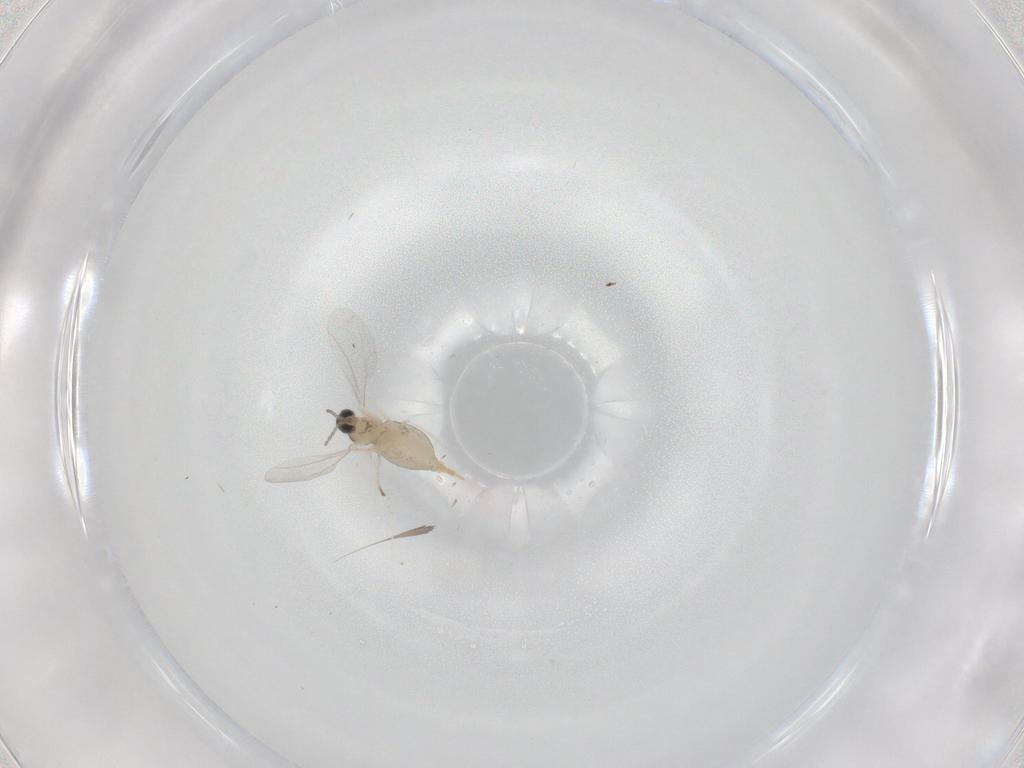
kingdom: Animalia
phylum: Arthropoda
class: Insecta
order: Diptera
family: Cecidomyiidae
